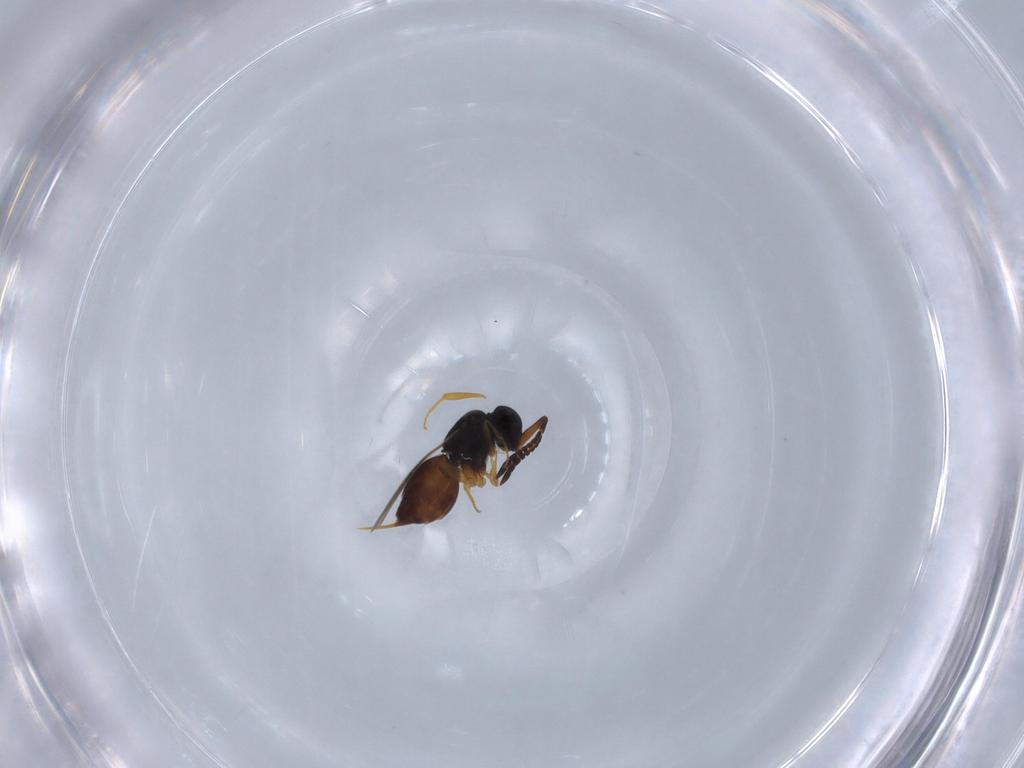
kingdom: Animalia
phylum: Arthropoda
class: Insecta
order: Hymenoptera
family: Ceraphronidae
